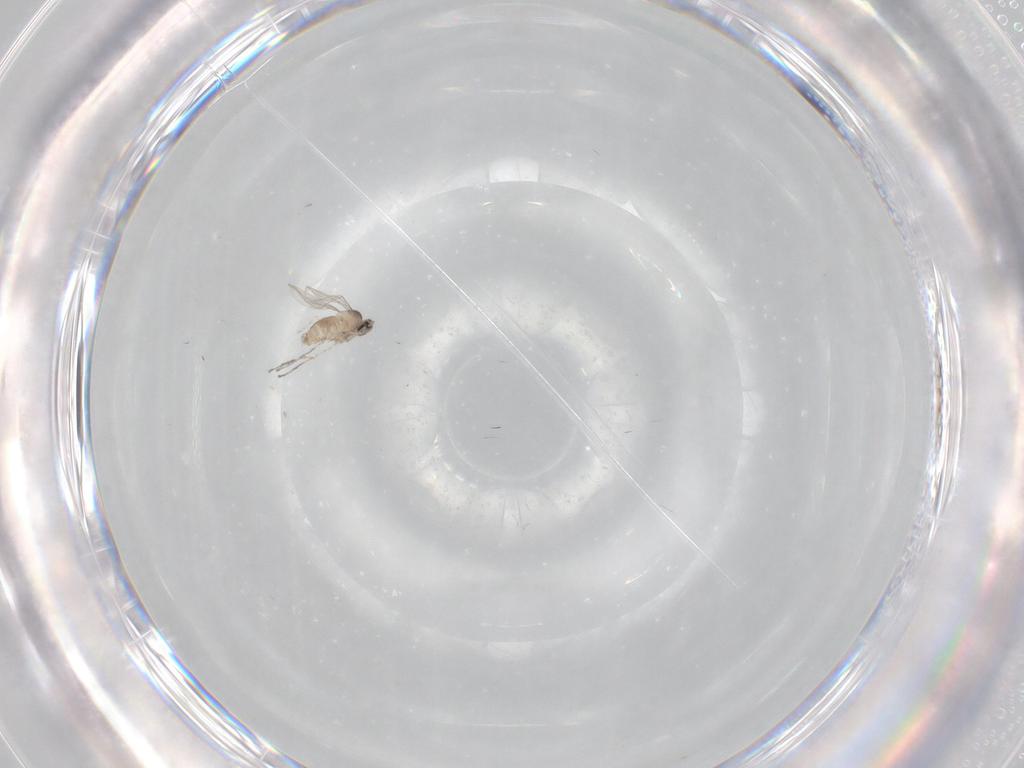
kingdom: Animalia
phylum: Arthropoda
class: Insecta
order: Diptera
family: Cecidomyiidae
